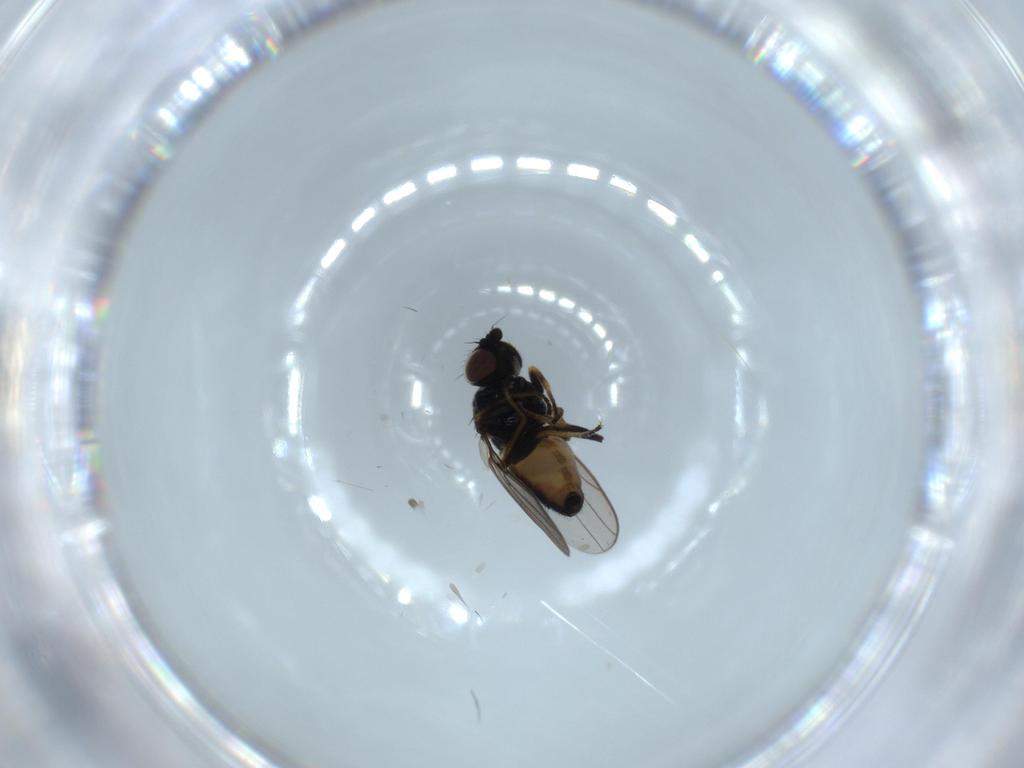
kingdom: Animalia
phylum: Arthropoda
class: Insecta
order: Diptera
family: Chloropidae
